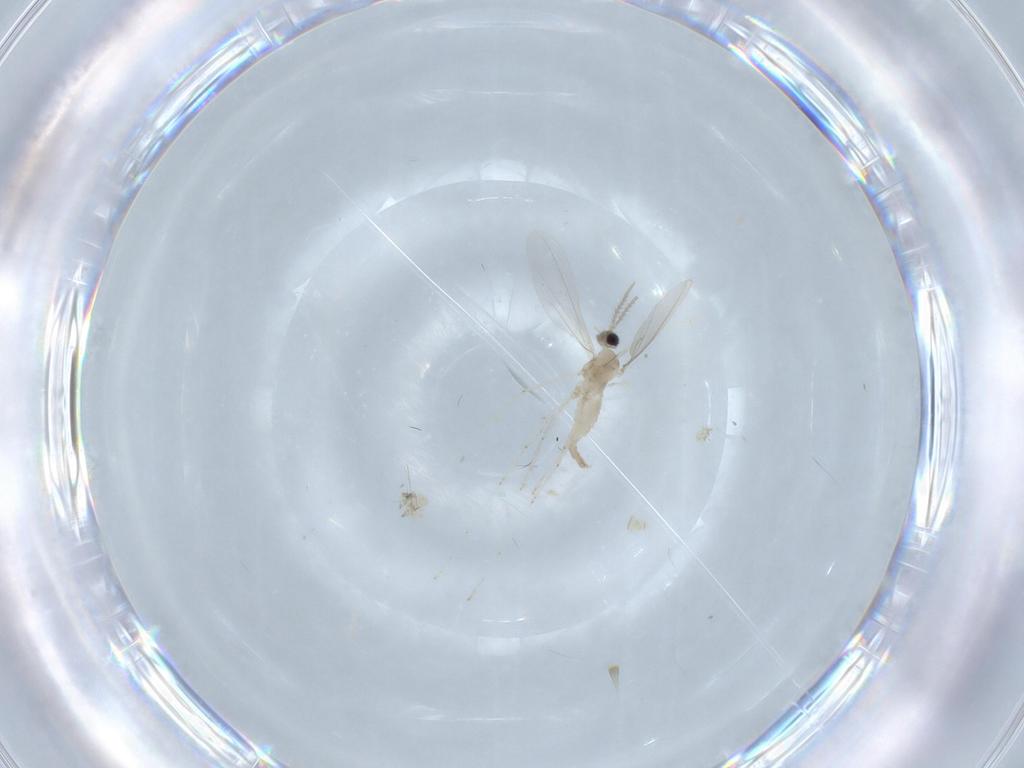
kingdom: Animalia
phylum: Arthropoda
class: Insecta
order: Diptera
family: Cecidomyiidae
